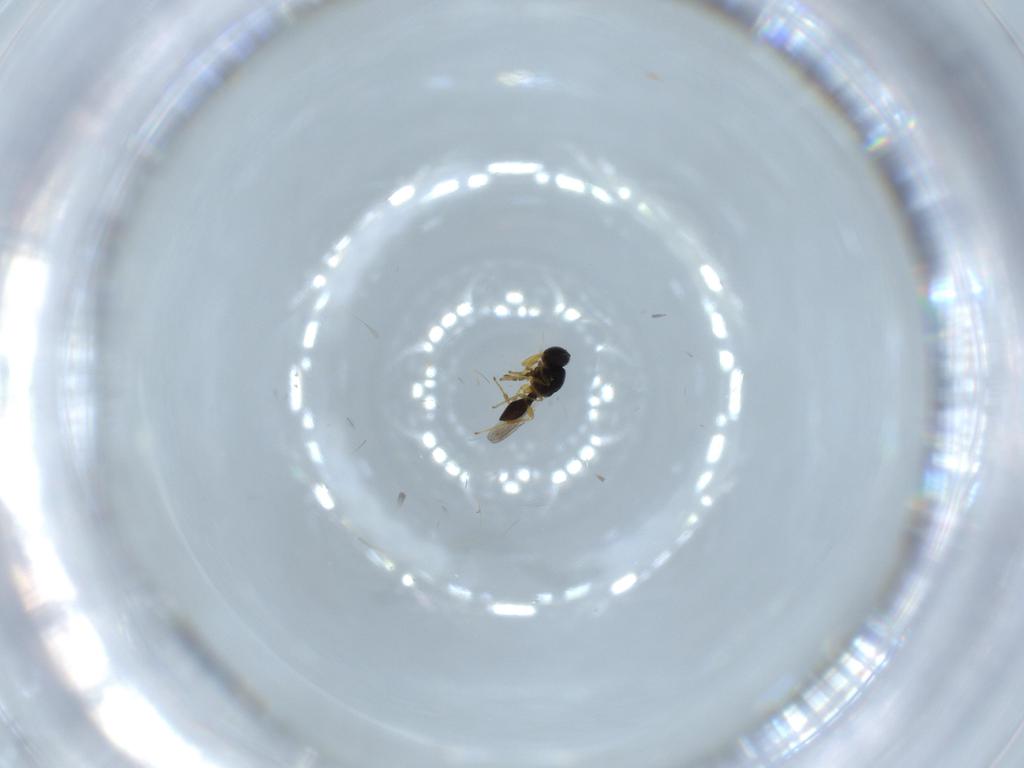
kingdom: Animalia
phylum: Arthropoda
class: Insecta
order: Hymenoptera
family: Platygastridae
